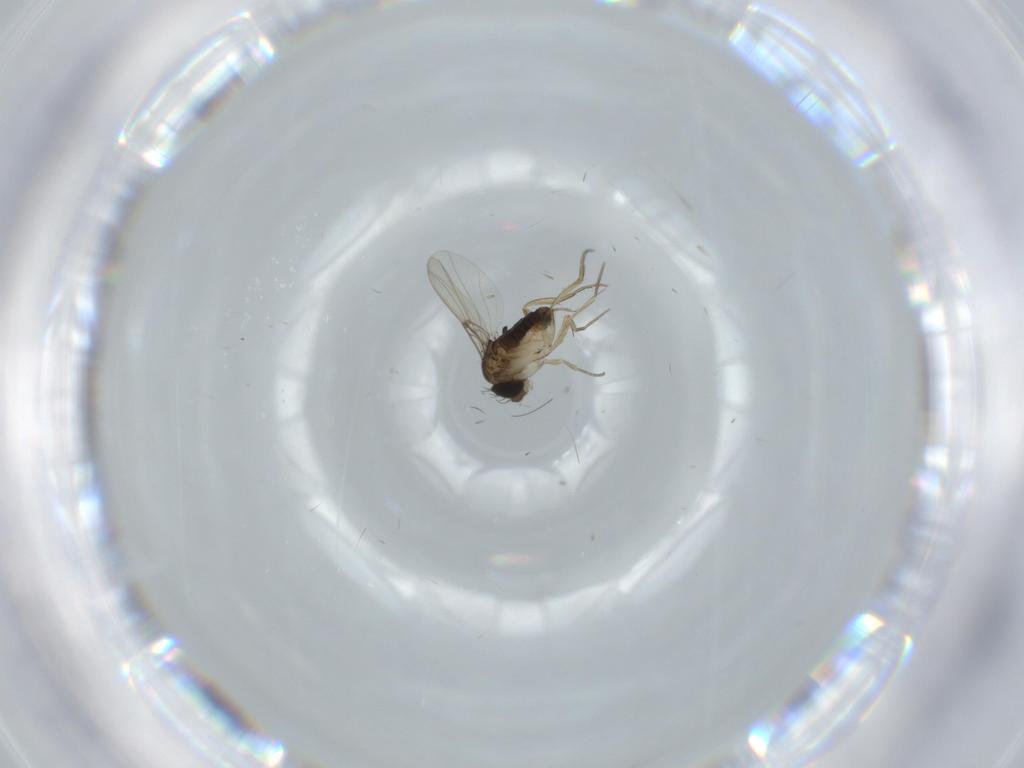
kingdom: Animalia
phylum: Arthropoda
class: Insecta
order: Diptera
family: Phoridae
